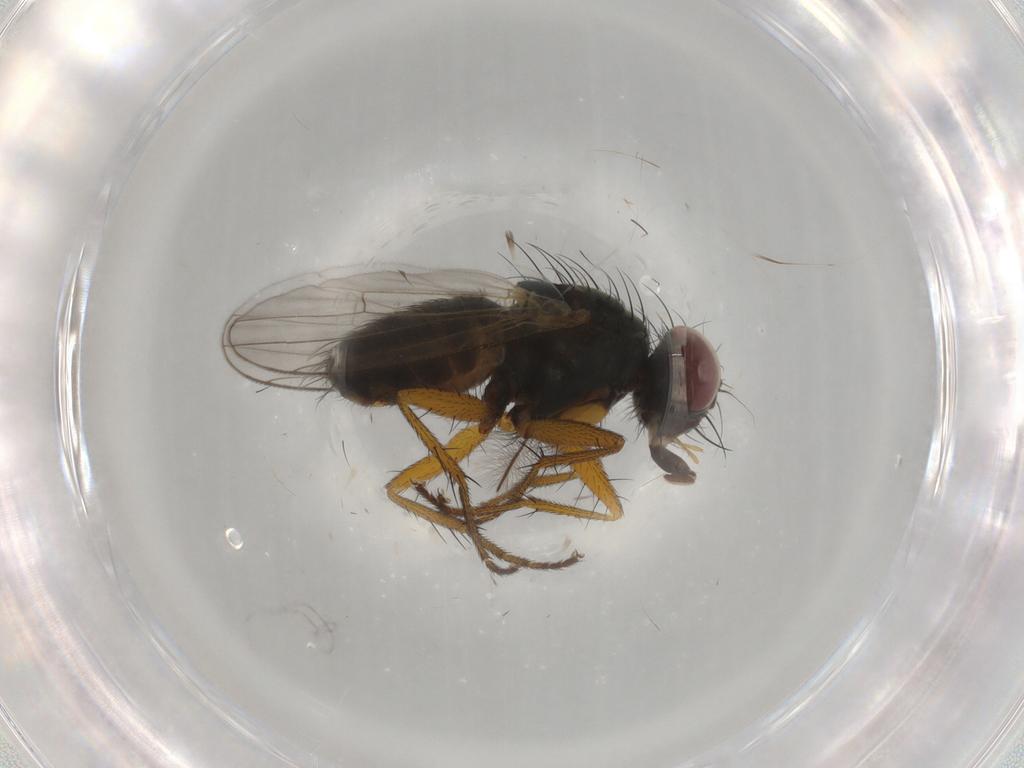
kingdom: Animalia
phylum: Arthropoda
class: Insecta
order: Diptera
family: Muscidae
